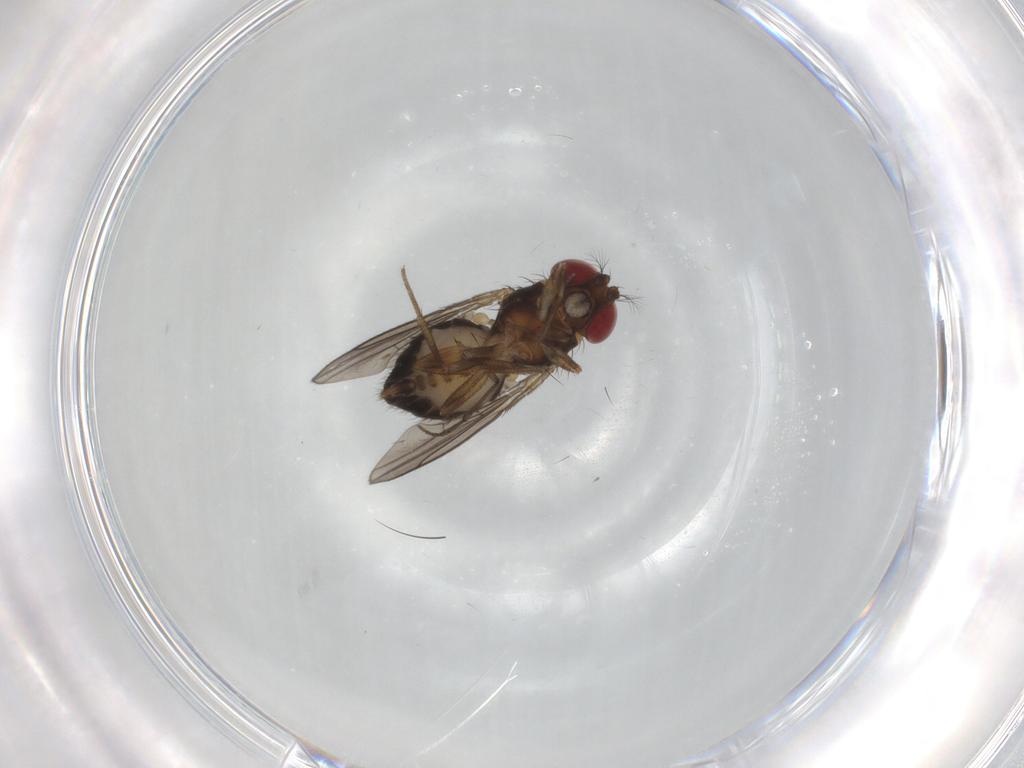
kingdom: Animalia
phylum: Arthropoda
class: Insecta
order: Diptera
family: Drosophilidae
